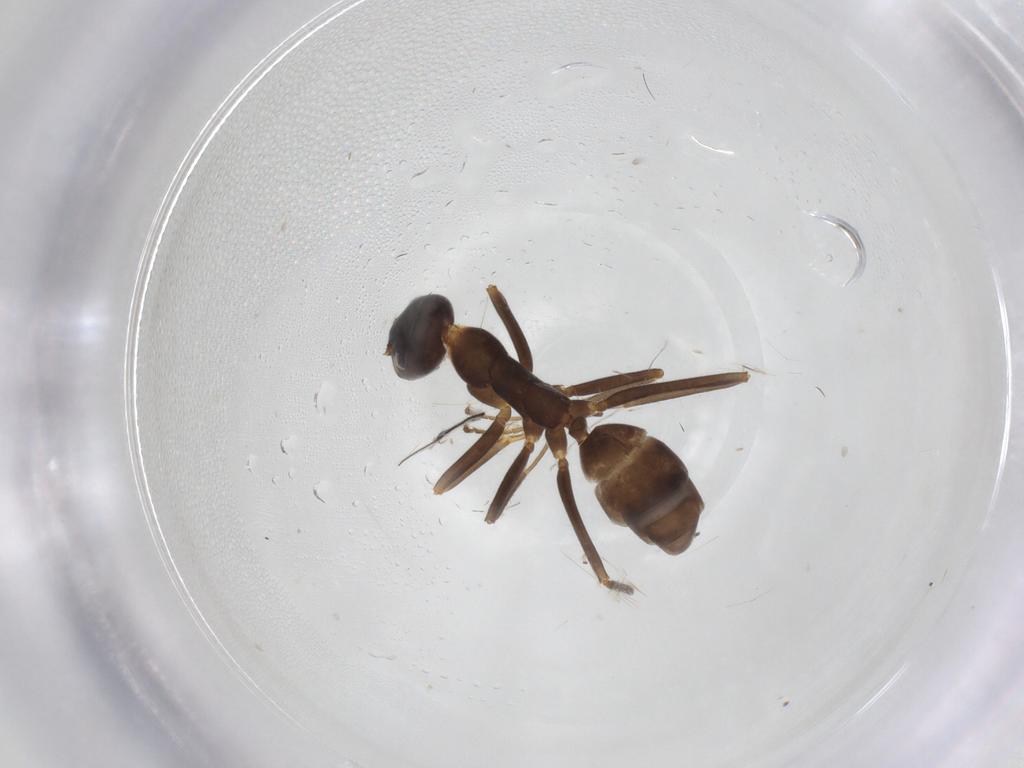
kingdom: Animalia
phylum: Arthropoda
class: Insecta
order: Hymenoptera
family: Formicidae
